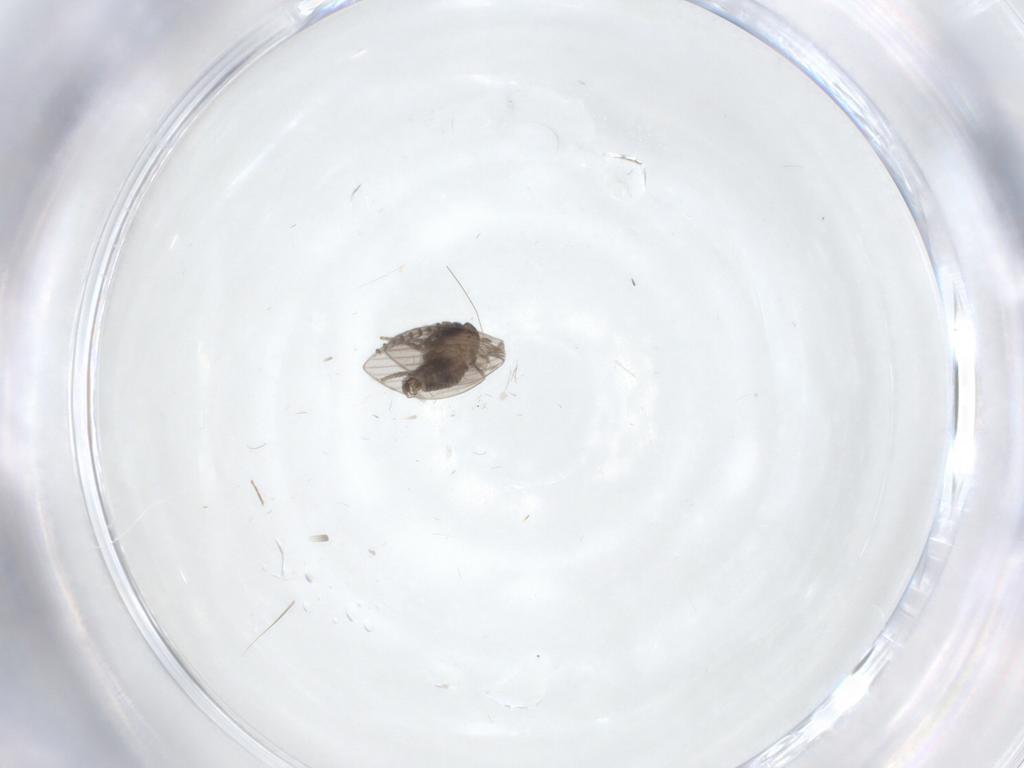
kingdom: Animalia
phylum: Arthropoda
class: Insecta
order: Diptera
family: Psychodidae
